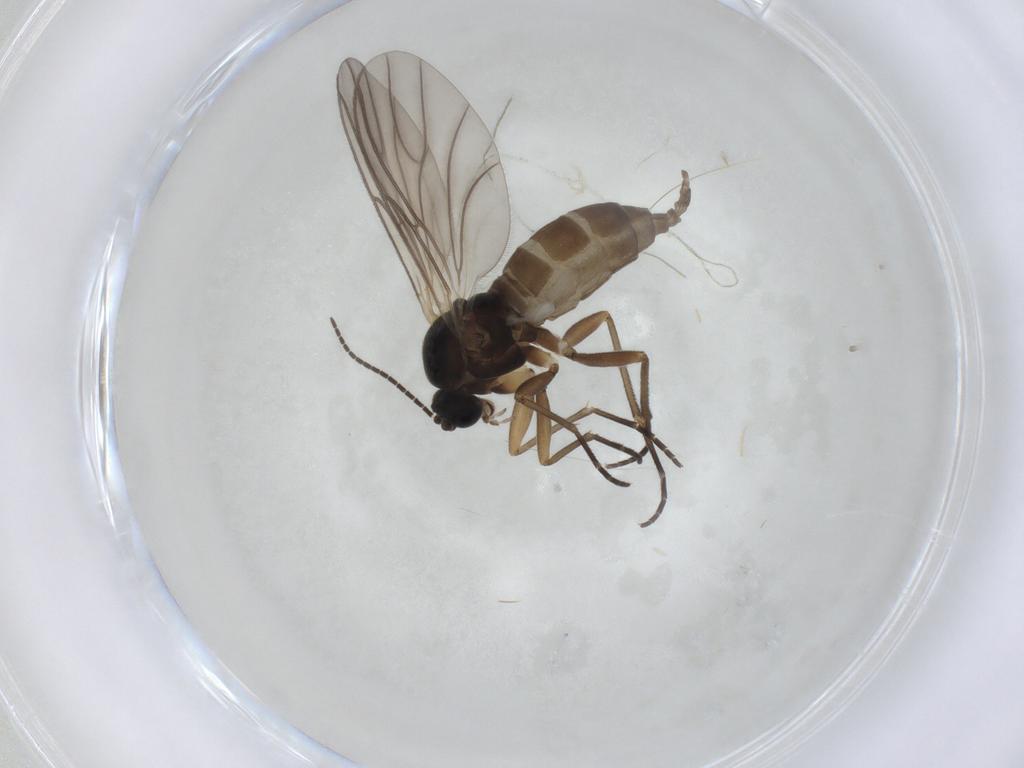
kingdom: Animalia
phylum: Arthropoda
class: Insecta
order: Diptera
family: Sciaridae
